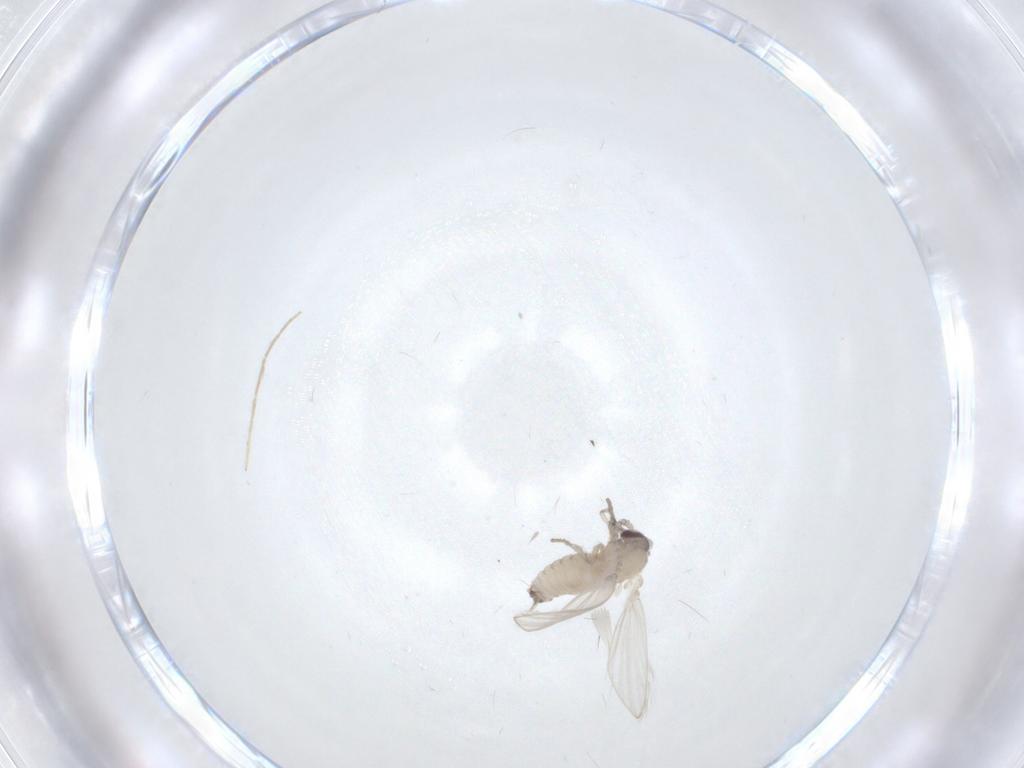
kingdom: Animalia
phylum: Arthropoda
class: Insecta
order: Diptera
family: Psychodidae
